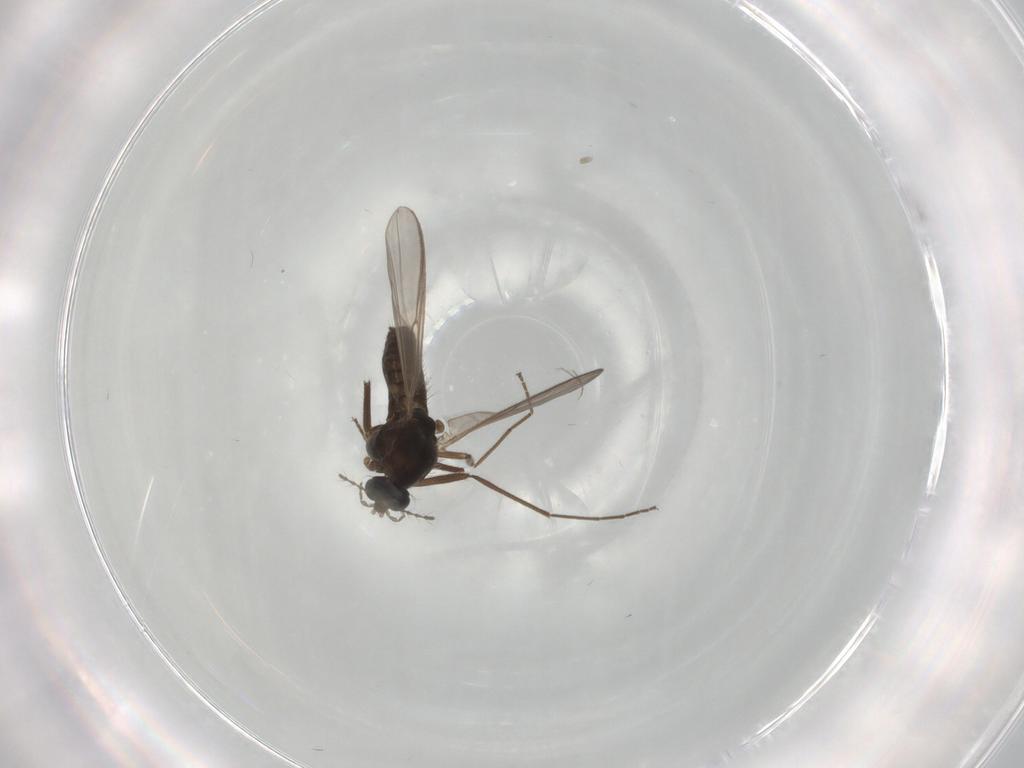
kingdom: Animalia
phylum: Arthropoda
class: Insecta
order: Diptera
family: Chironomidae
